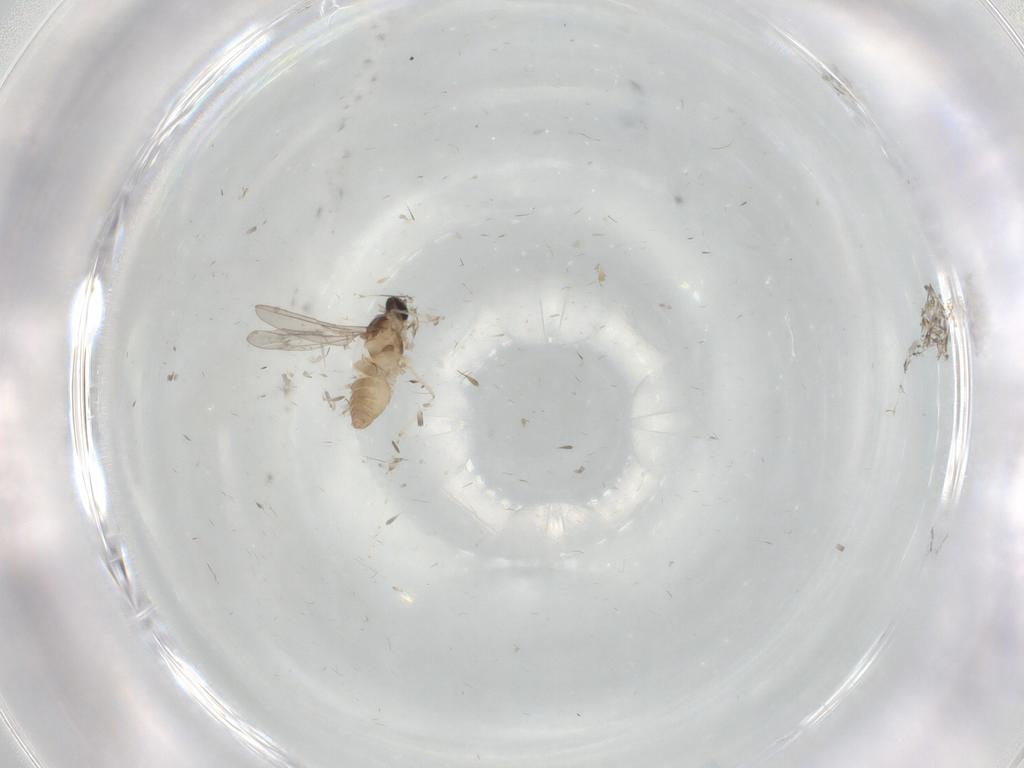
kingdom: Animalia
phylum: Arthropoda
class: Insecta
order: Diptera
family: Cecidomyiidae
